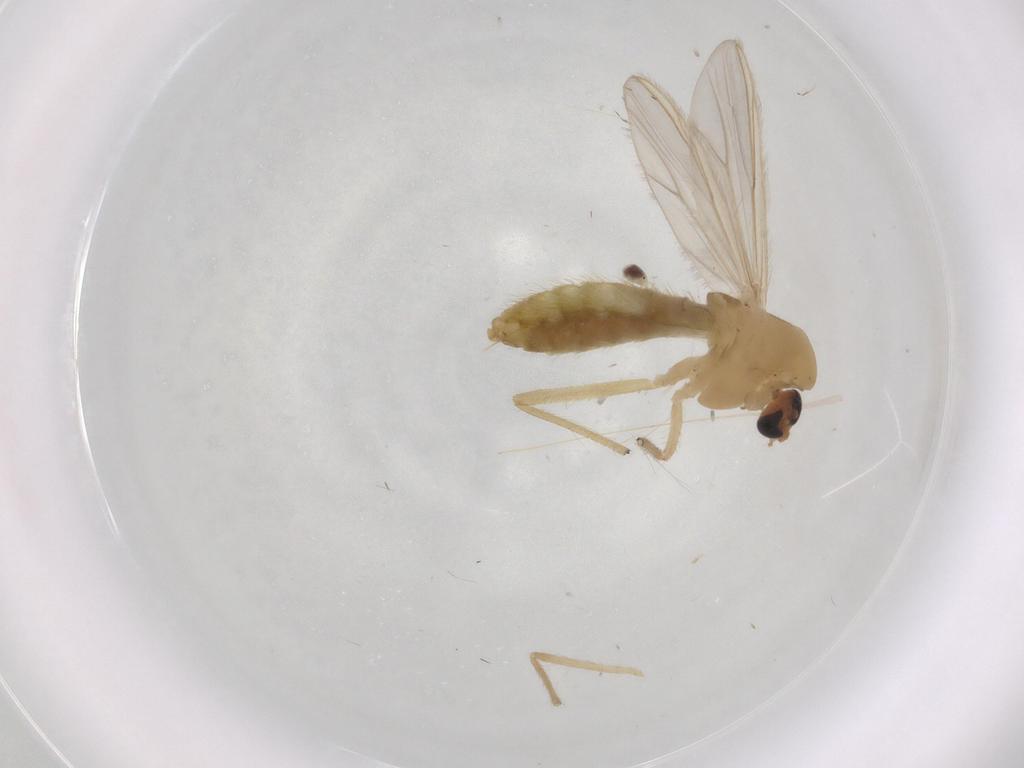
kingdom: Animalia
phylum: Arthropoda
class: Insecta
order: Diptera
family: Chironomidae
